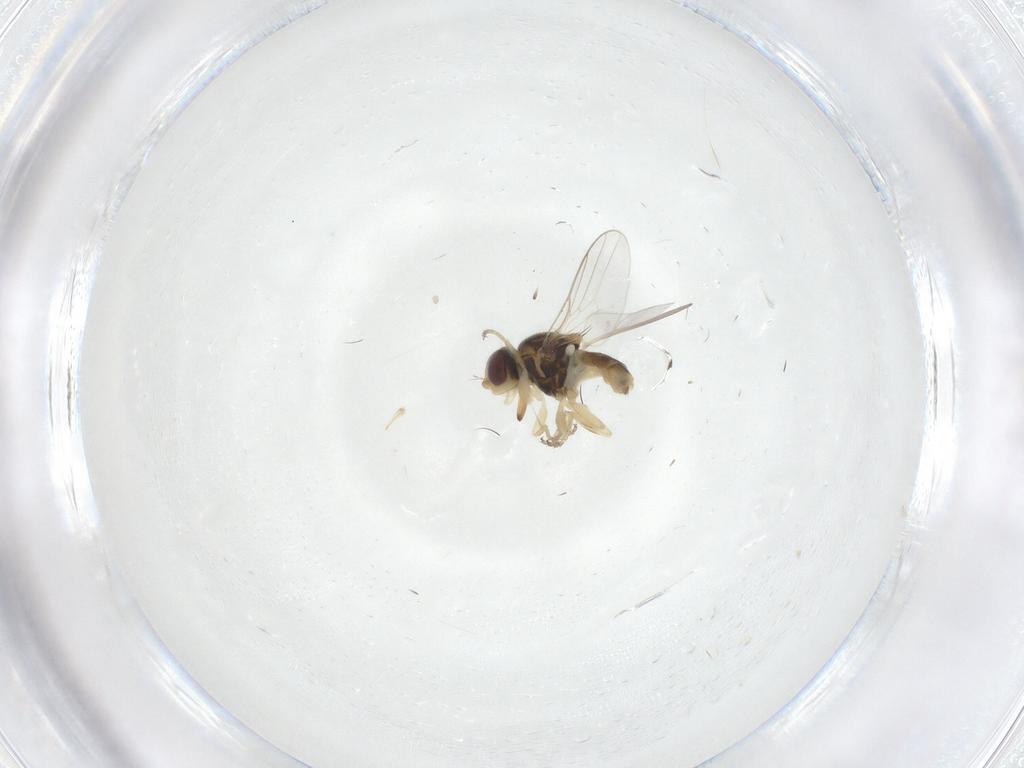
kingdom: Animalia
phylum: Arthropoda
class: Insecta
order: Diptera
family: Chloropidae
